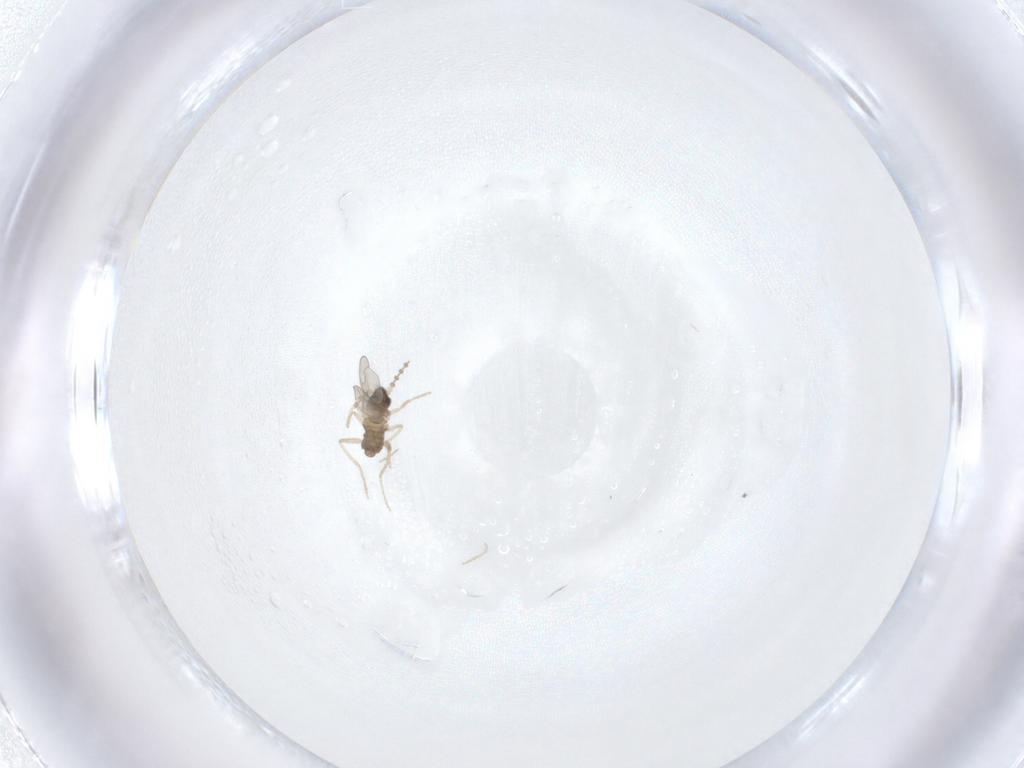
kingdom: Animalia
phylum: Arthropoda
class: Insecta
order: Diptera
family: Cecidomyiidae
